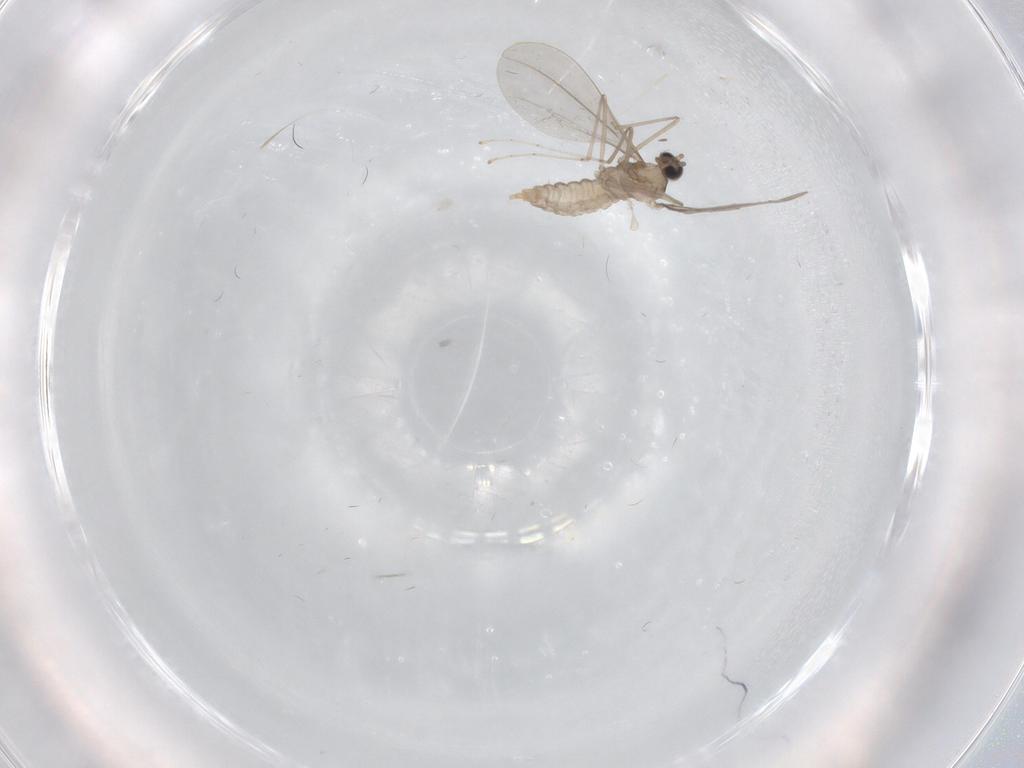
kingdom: Animalia
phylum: Arthropoda
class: Insecta
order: Diptera
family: Cecidomyiidae
